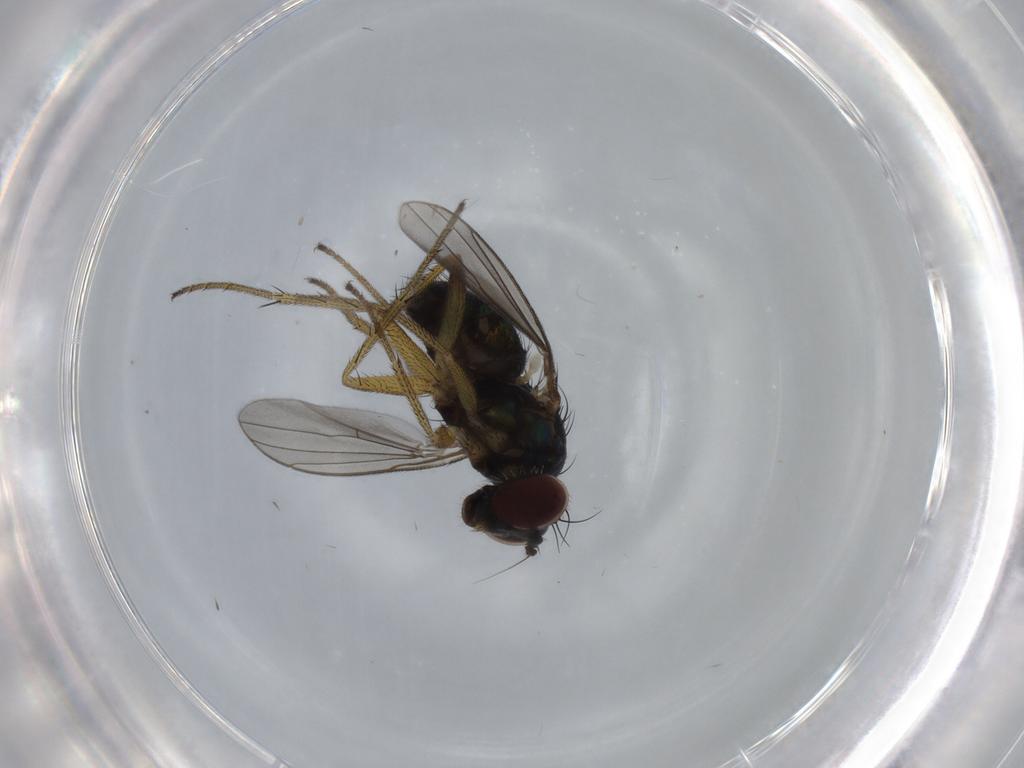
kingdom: Animalia
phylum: Arthropoda
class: Insecta
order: Diptera
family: Dolichopodidae
